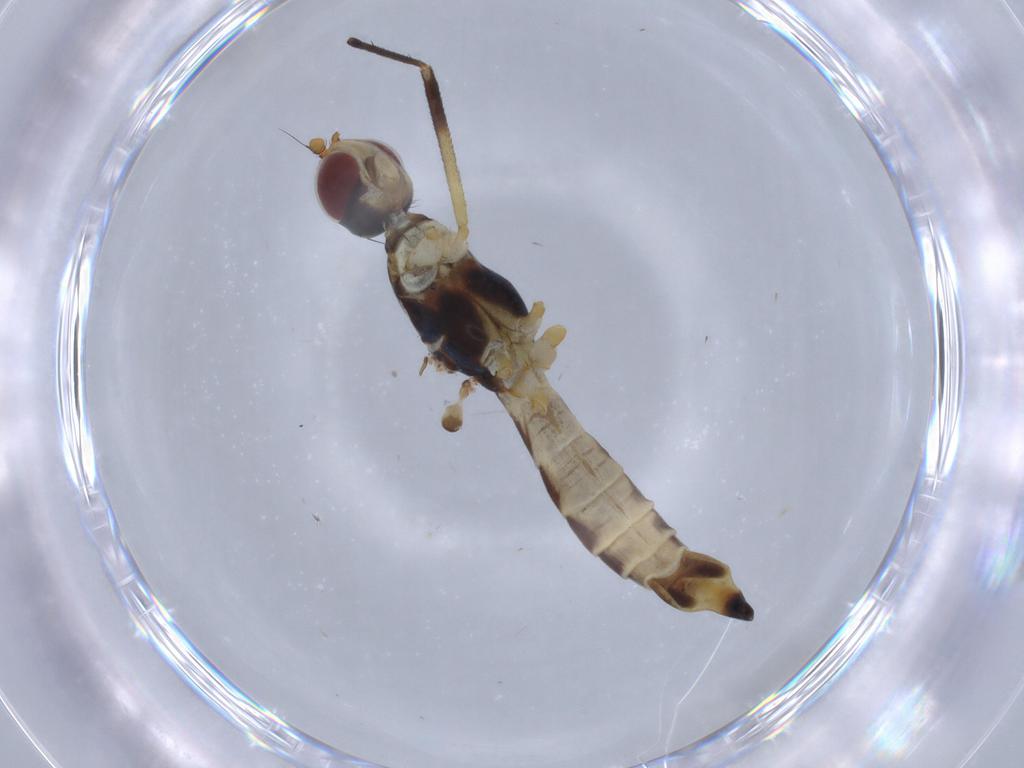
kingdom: Animalia
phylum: Arthropoda
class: Insecta
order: Diptera
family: Micropezidae
